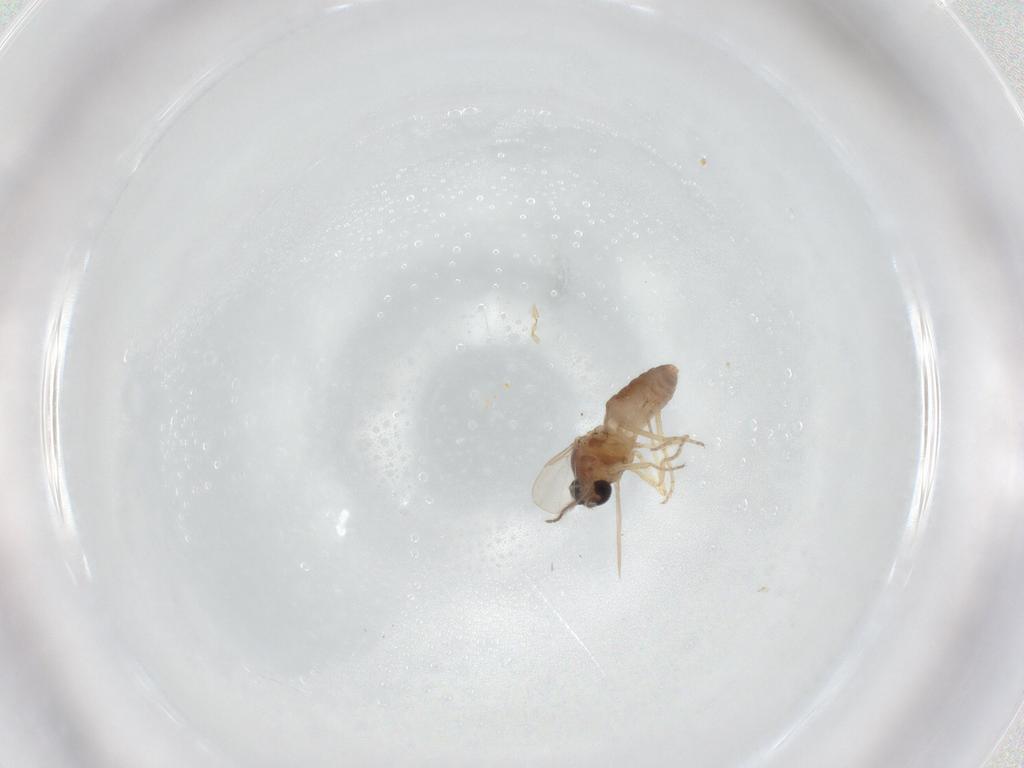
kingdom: Animalia
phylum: Arthropoda
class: Insecta
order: Diptera
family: Ceratopogonidae
